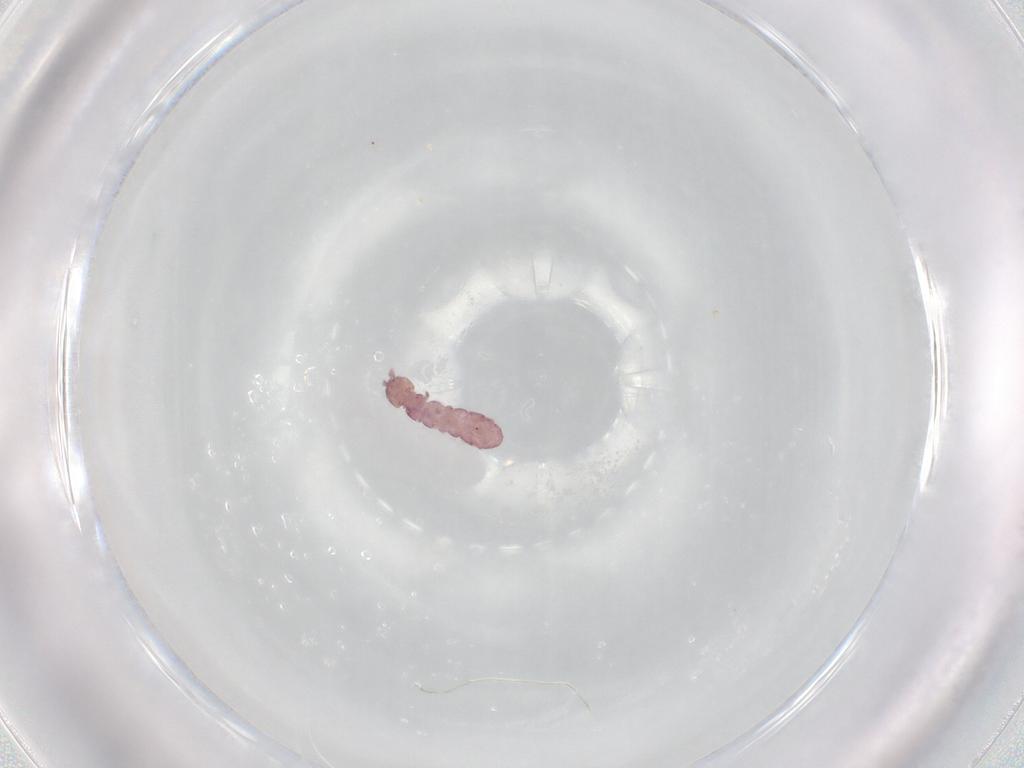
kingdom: Animalia
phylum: Arthropoda
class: Collembola
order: Entomobryomorpha
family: Isotomidae
